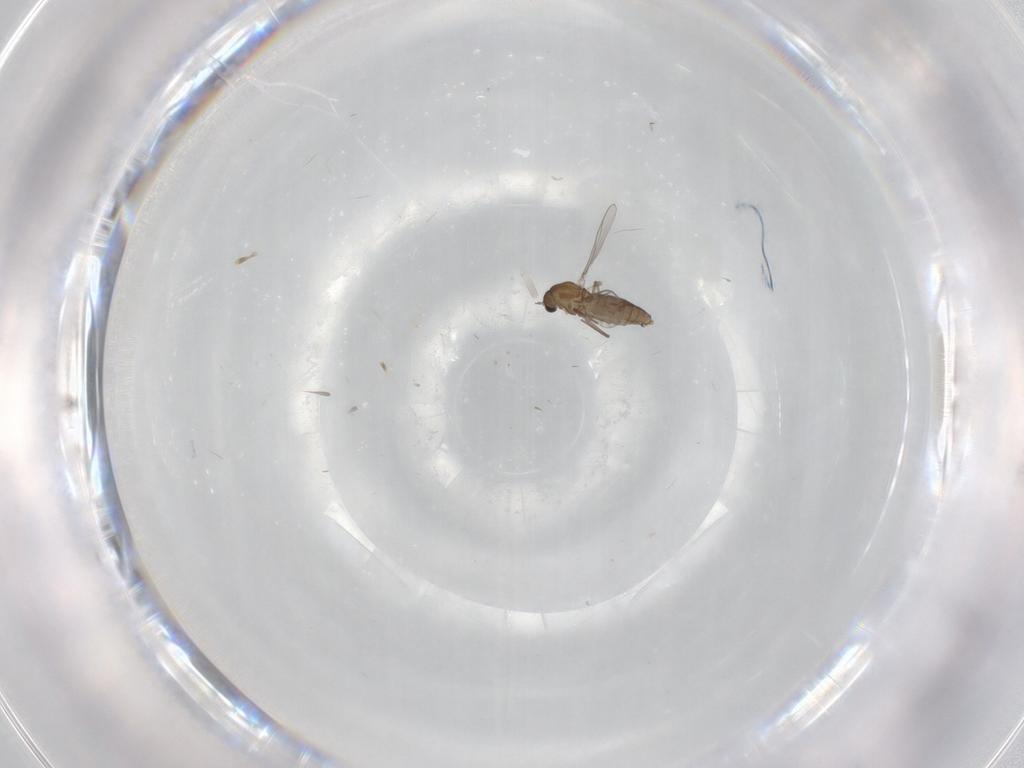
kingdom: Animalia
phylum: Arthropoda
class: Insecta
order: Diptera
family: Chironomidae
